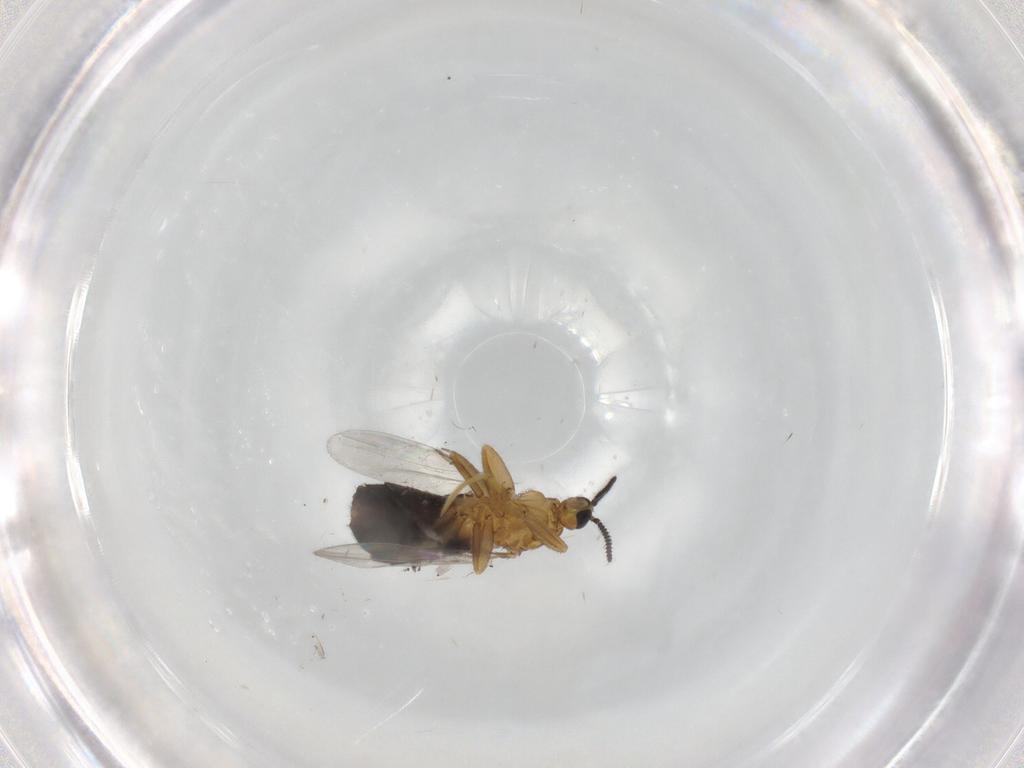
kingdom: Animalia
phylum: Arthropoda
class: Insecta
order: Diptera
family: Scatopsidae
